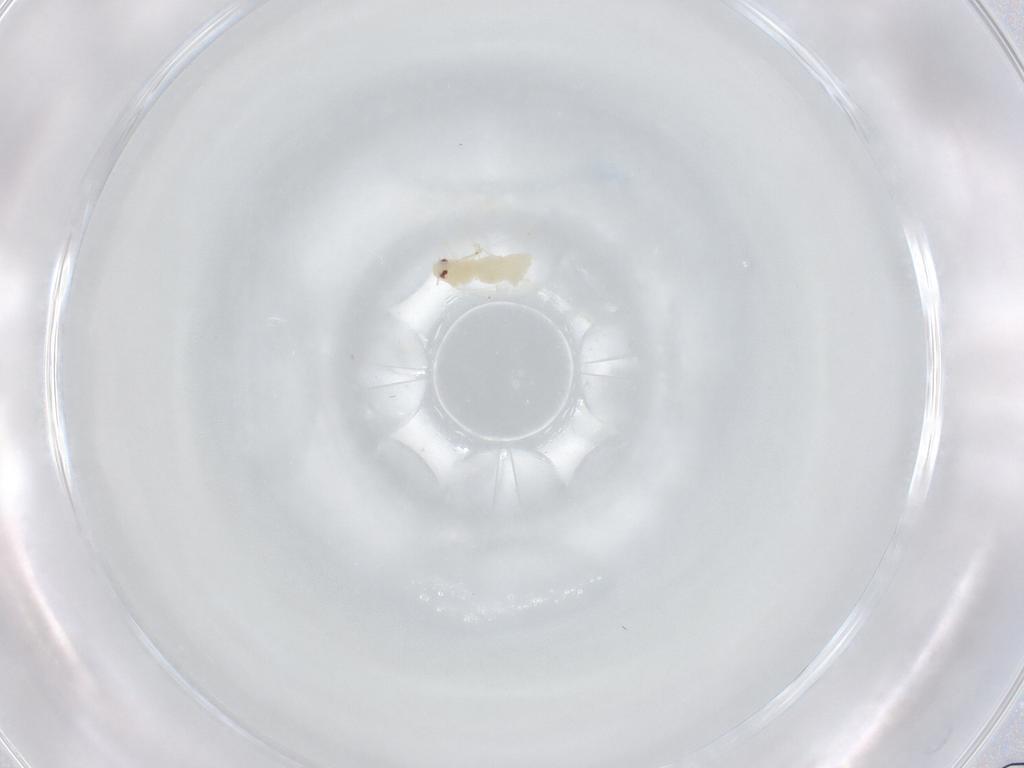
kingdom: Animalia
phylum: Arthropoda
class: Insecta
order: Hemiptera
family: Aleyrodidae
